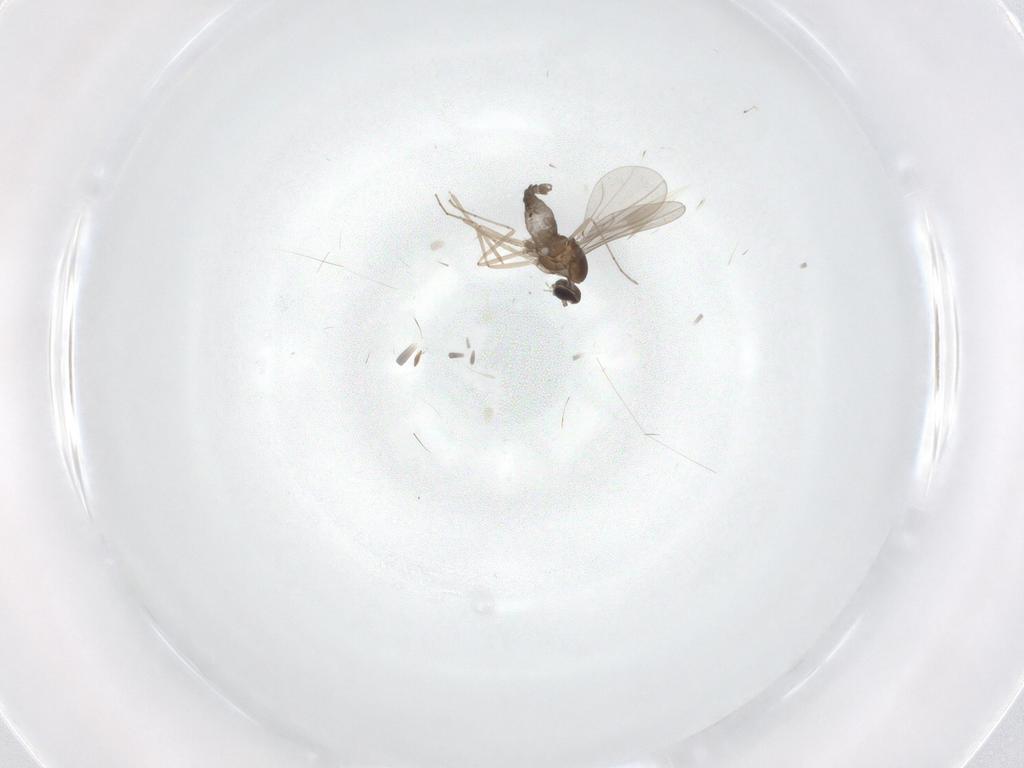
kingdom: Animalia
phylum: Arthropoda
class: Insecta
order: Diptera
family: Cecidomyiidae
